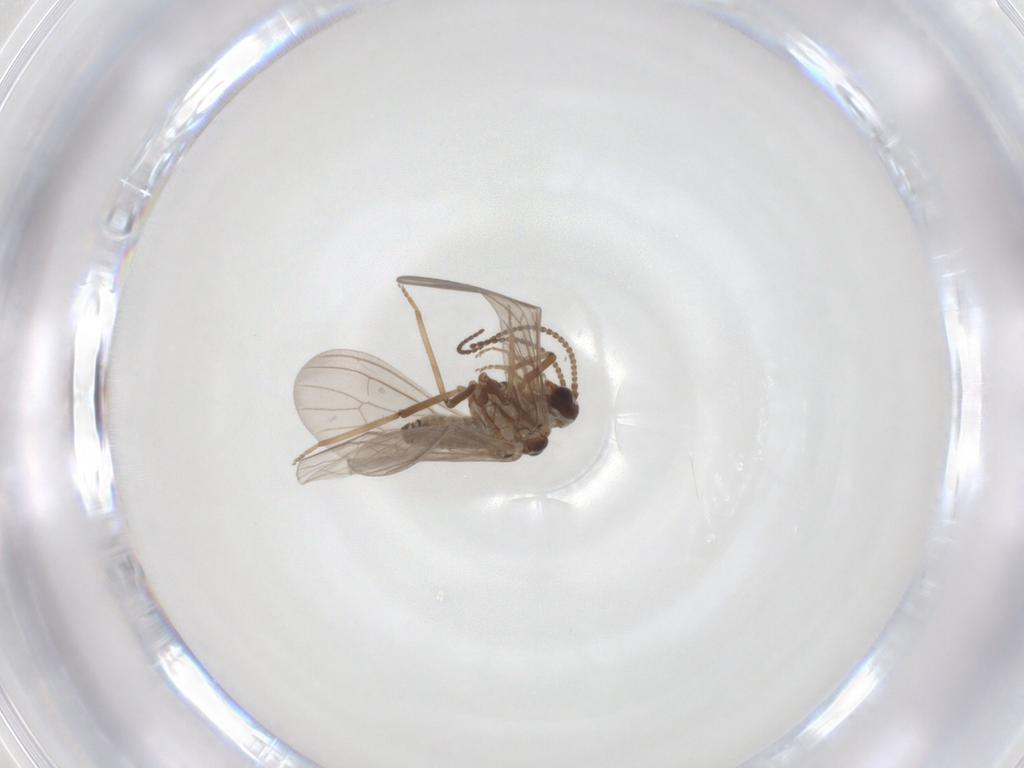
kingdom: Animalia
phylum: Arthropoda
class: Insecta
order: Neuroptera
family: Coniopterygidae
